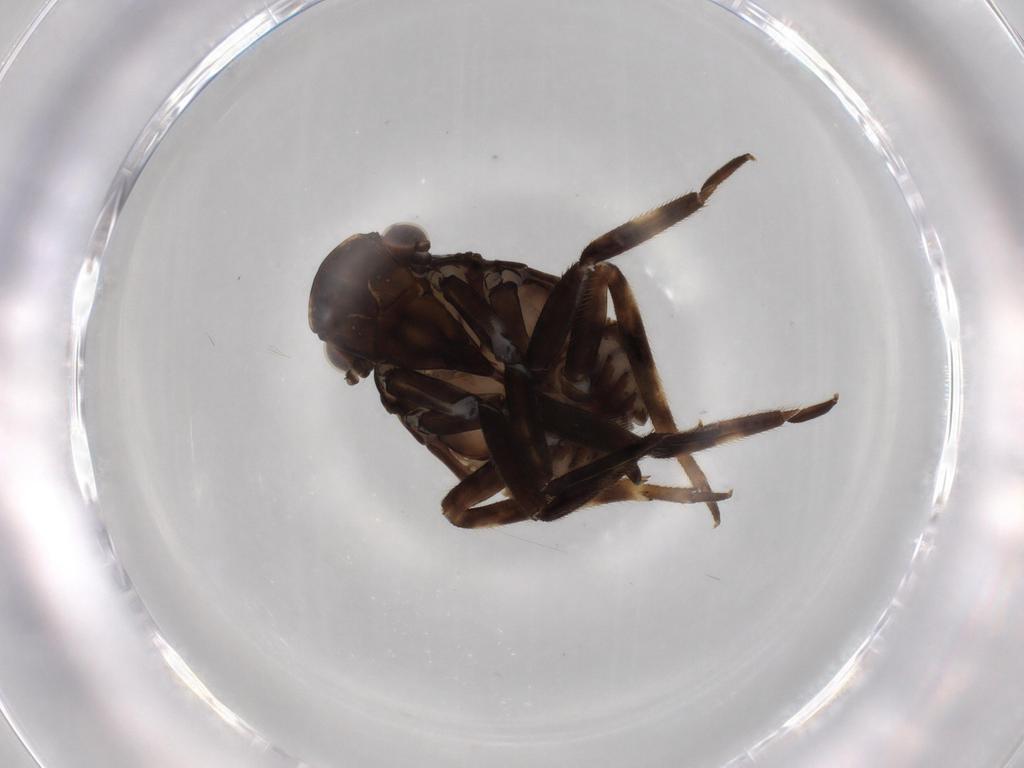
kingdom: Animalia
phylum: Arthropoda
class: Insecta
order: Hemiptera
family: Fulgoridae
